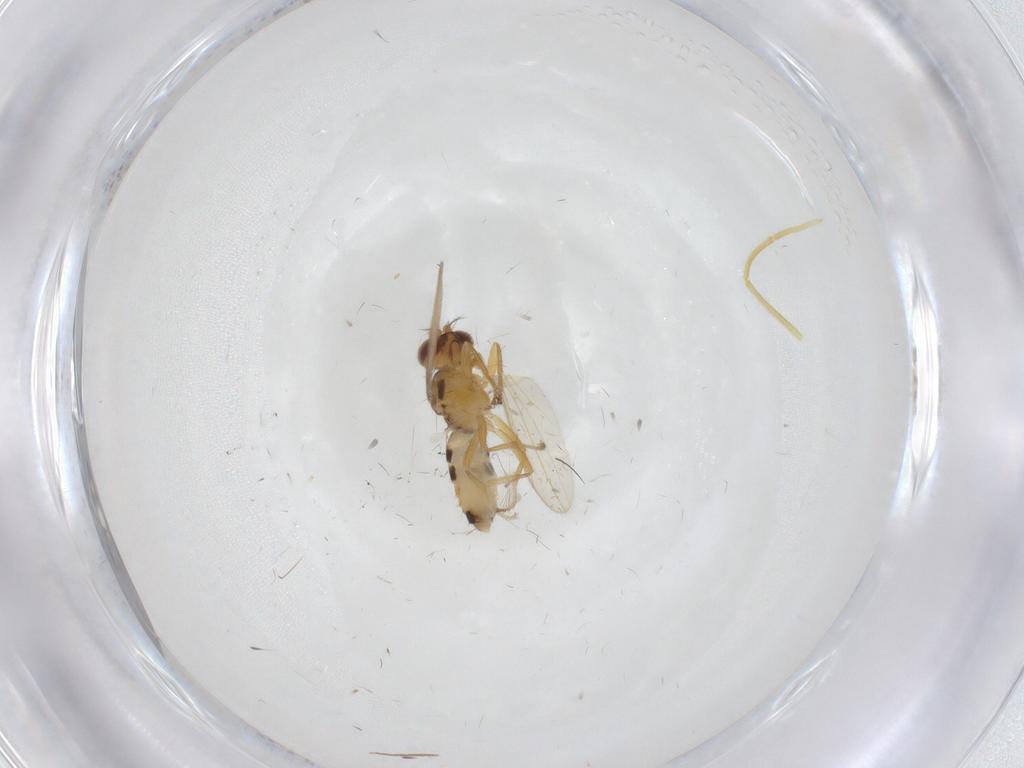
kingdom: Animalia
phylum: Arthropoda
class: Insecta
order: Diptera
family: Periscelididae
